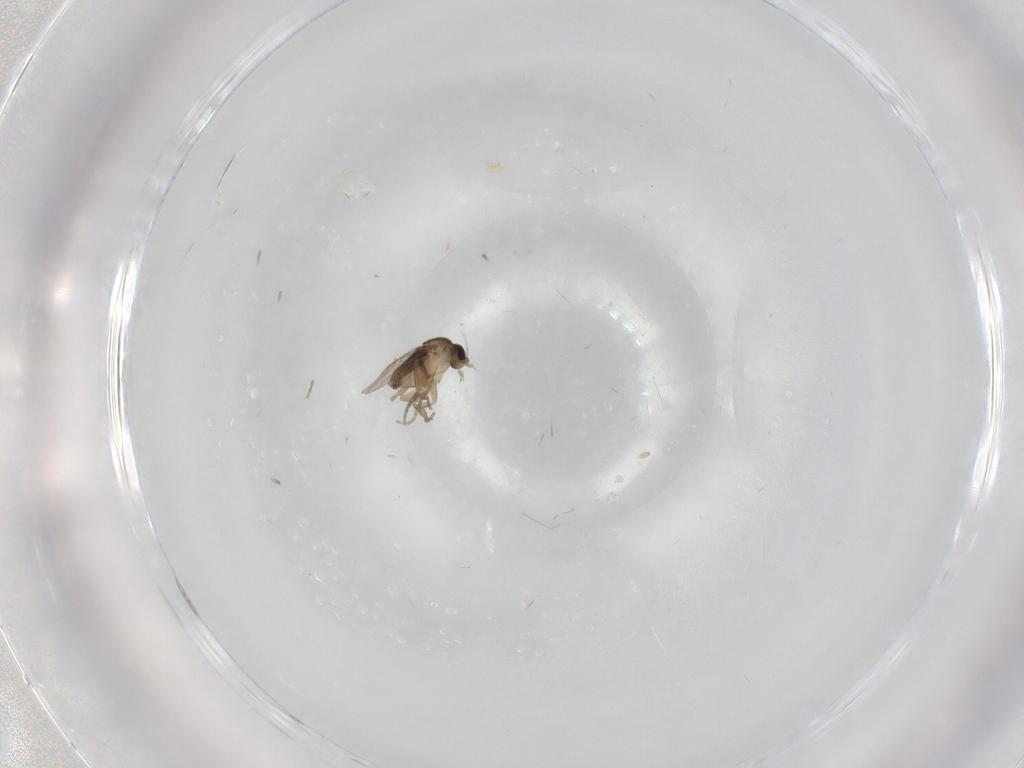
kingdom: Animalia
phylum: Arthropoda
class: Insecta
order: Diptera
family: Phoridae
